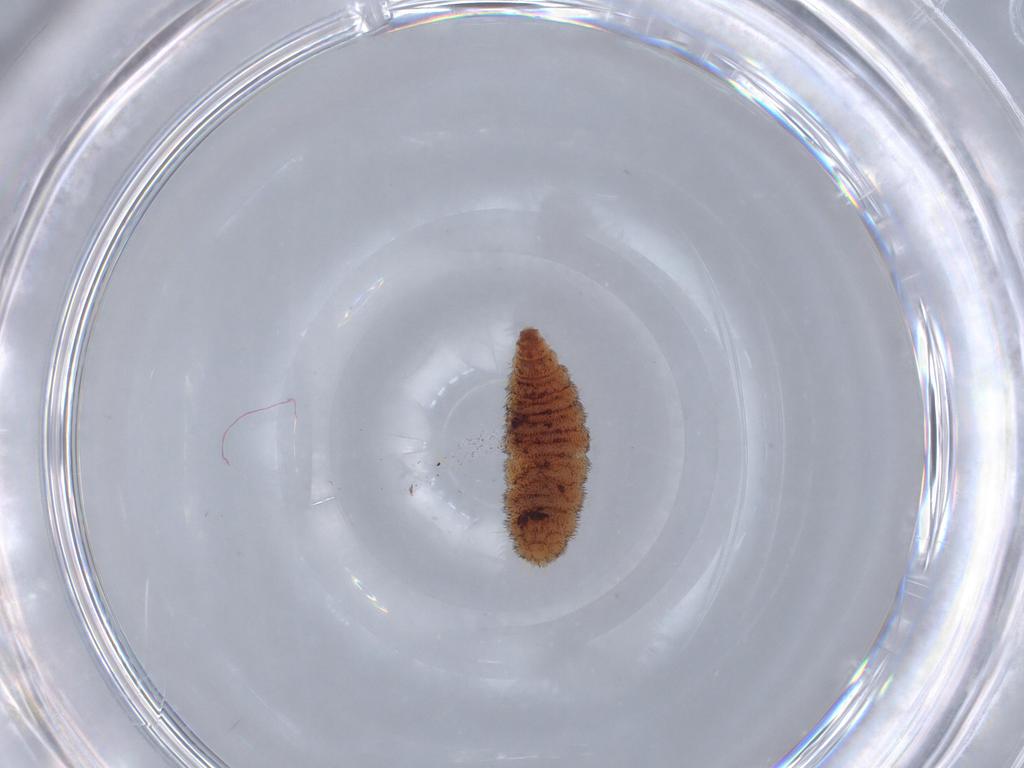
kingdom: Animalia
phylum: Arthropoda
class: Insecta
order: Diptera
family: Phoridae
